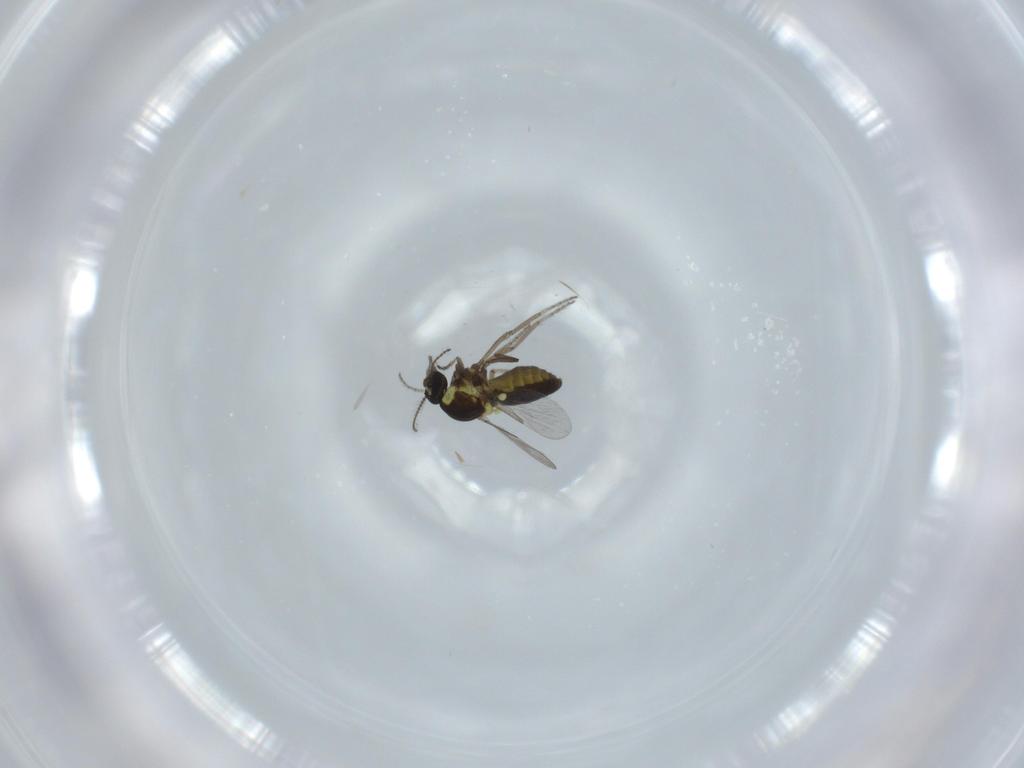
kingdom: Animalia
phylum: Arthropoda
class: Insecta
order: Diptera
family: Ceratopogonidae
